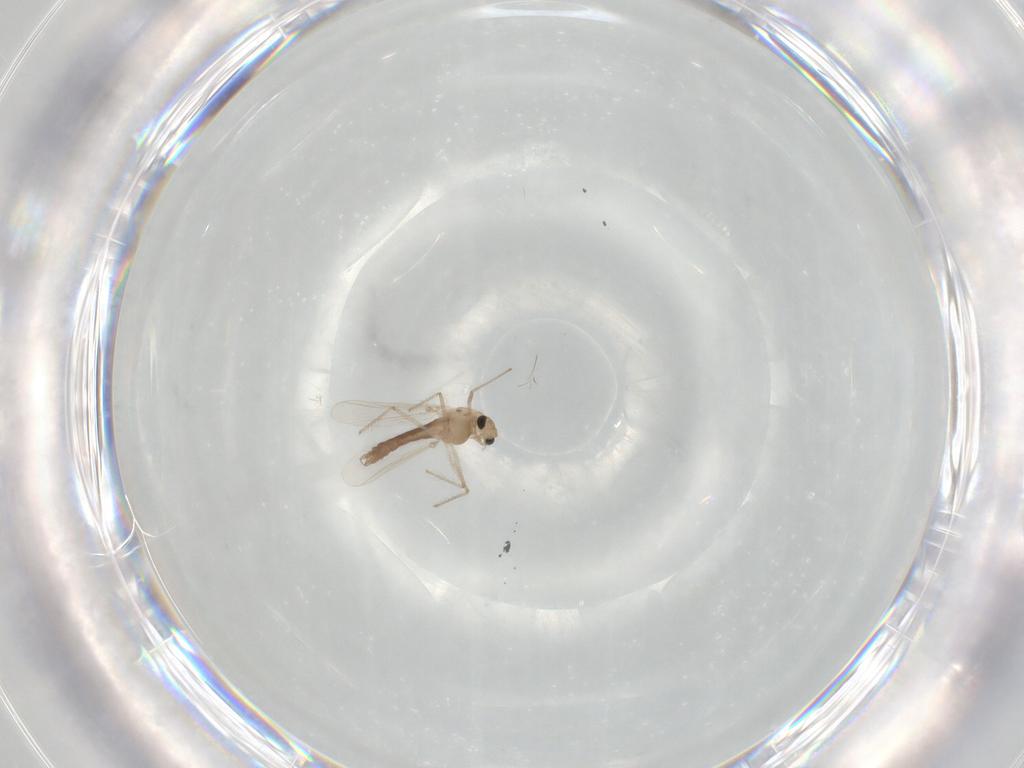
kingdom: Animalia
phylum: Arthropoda
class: Insecta
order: Diptera
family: Chironomidae
